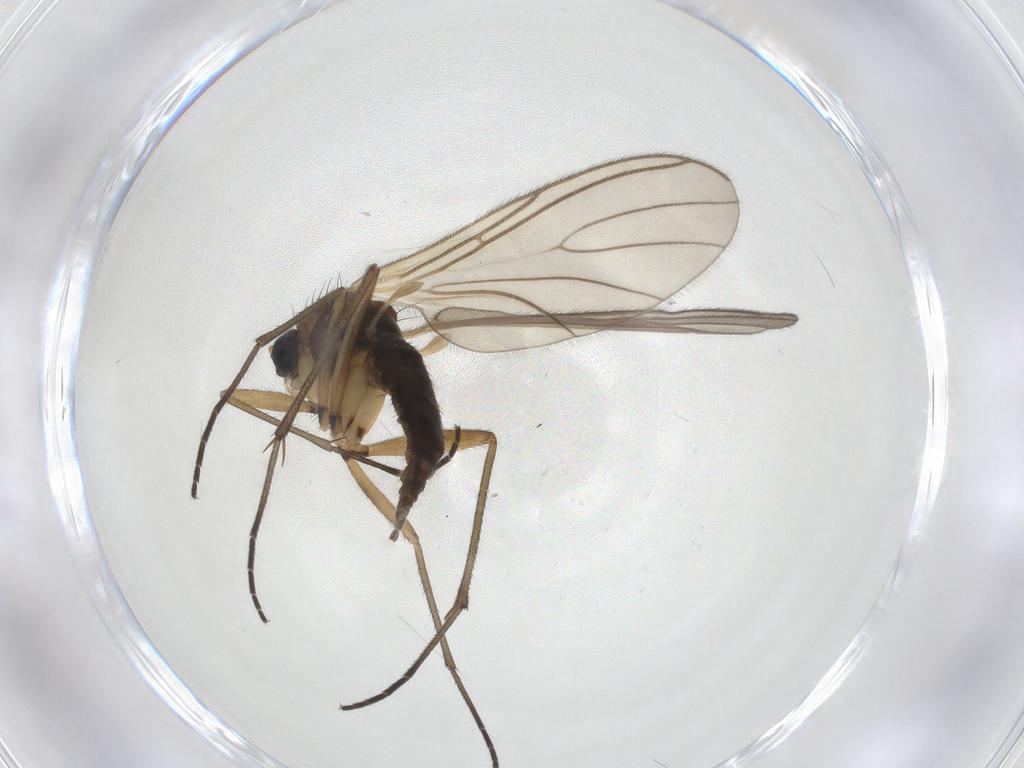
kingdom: Animalia
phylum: Arthropoda
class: Insecta
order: Diptera
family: Sciaridae
